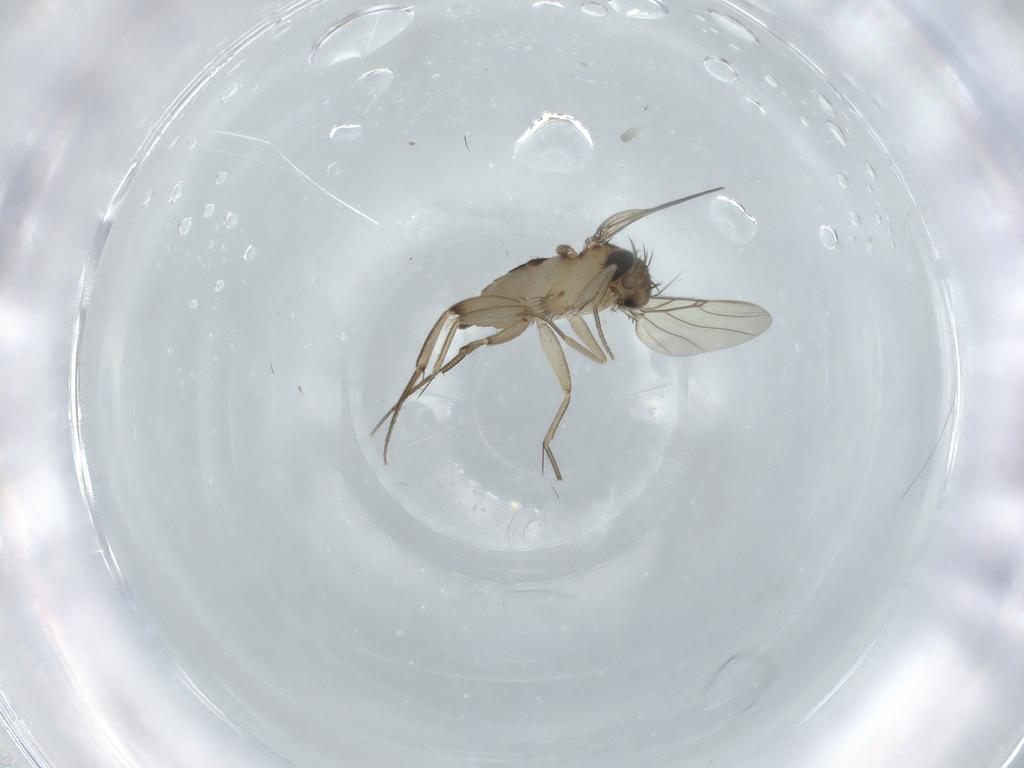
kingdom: Animalia
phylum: Arthropoda
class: Insecta
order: Diptera
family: Phoridae
